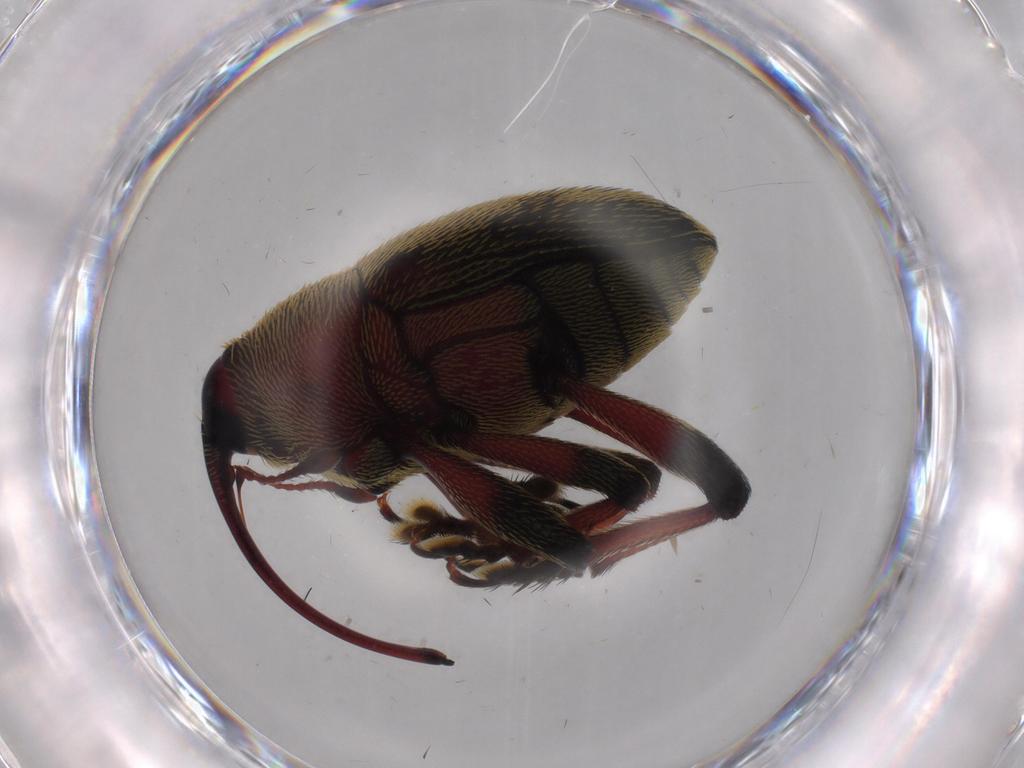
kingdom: Animalia
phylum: Arthropoda
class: Insecta
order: Coleoptera
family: Phengodidae
